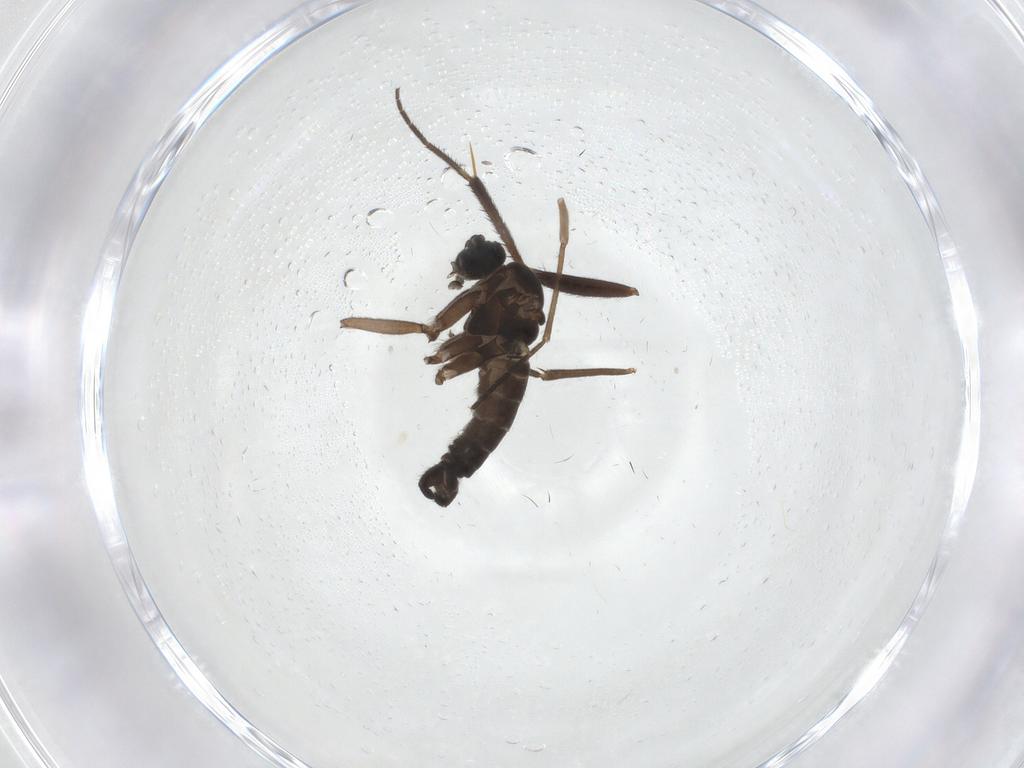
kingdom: Animalia
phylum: Arthropoda
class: Insecta
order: Diptera
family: Sciaridae
